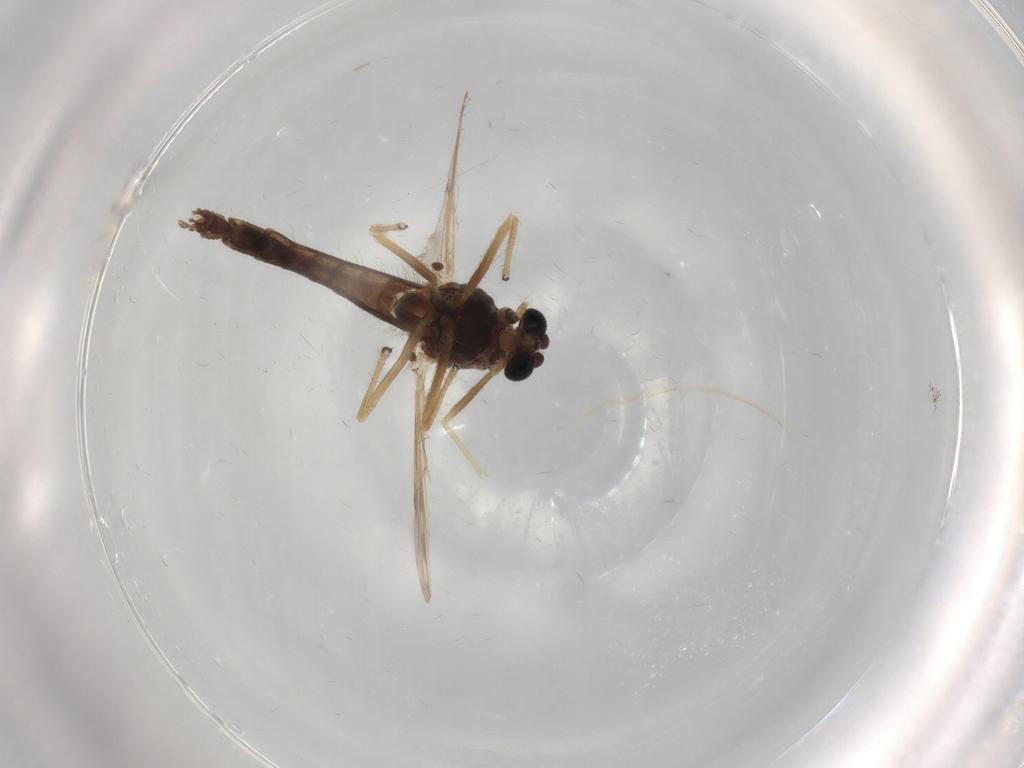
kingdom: Animalia
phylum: Arthropoda
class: Insecta
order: Diptera
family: Chironomidae
